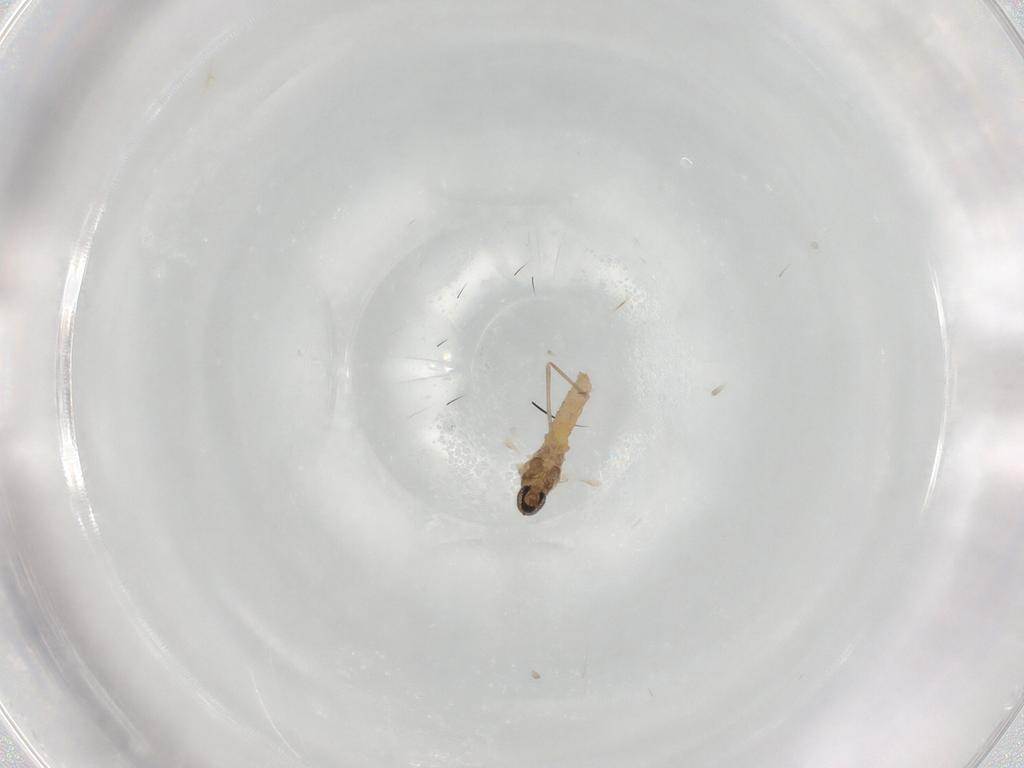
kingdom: Animalia
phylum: Arthropoda
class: Insecta
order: Diptera
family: Cecidomyiidae
